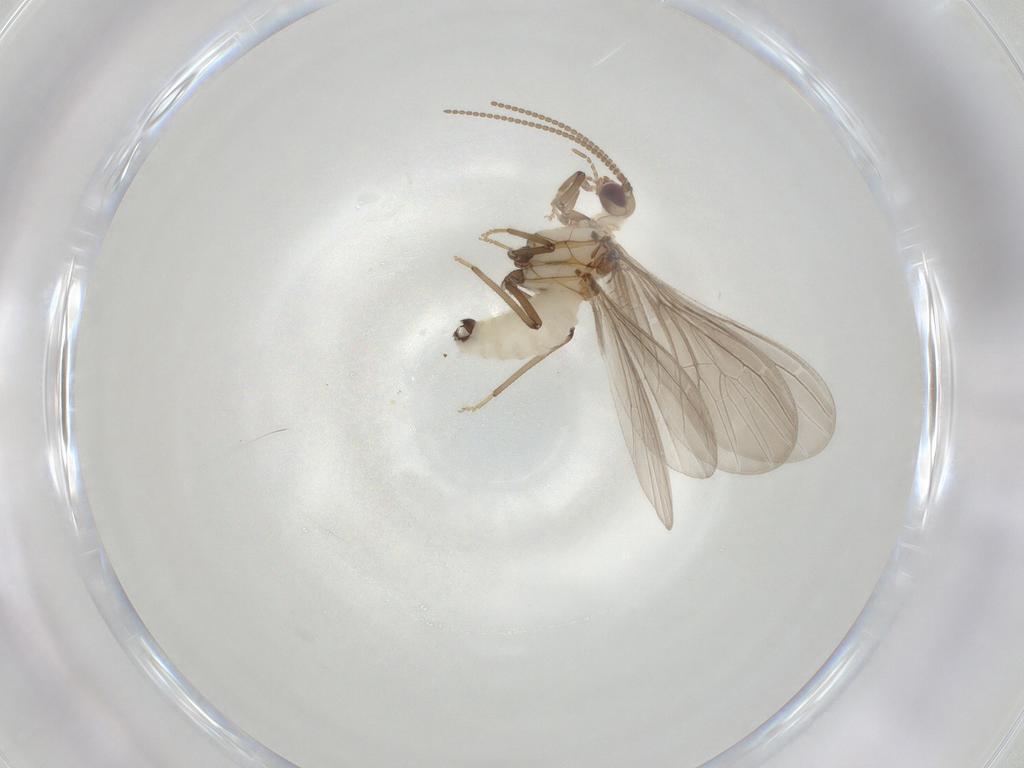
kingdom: Animalia
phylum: Arthropoda
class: Insecta
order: Neuroptera
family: Coniopterygidae
